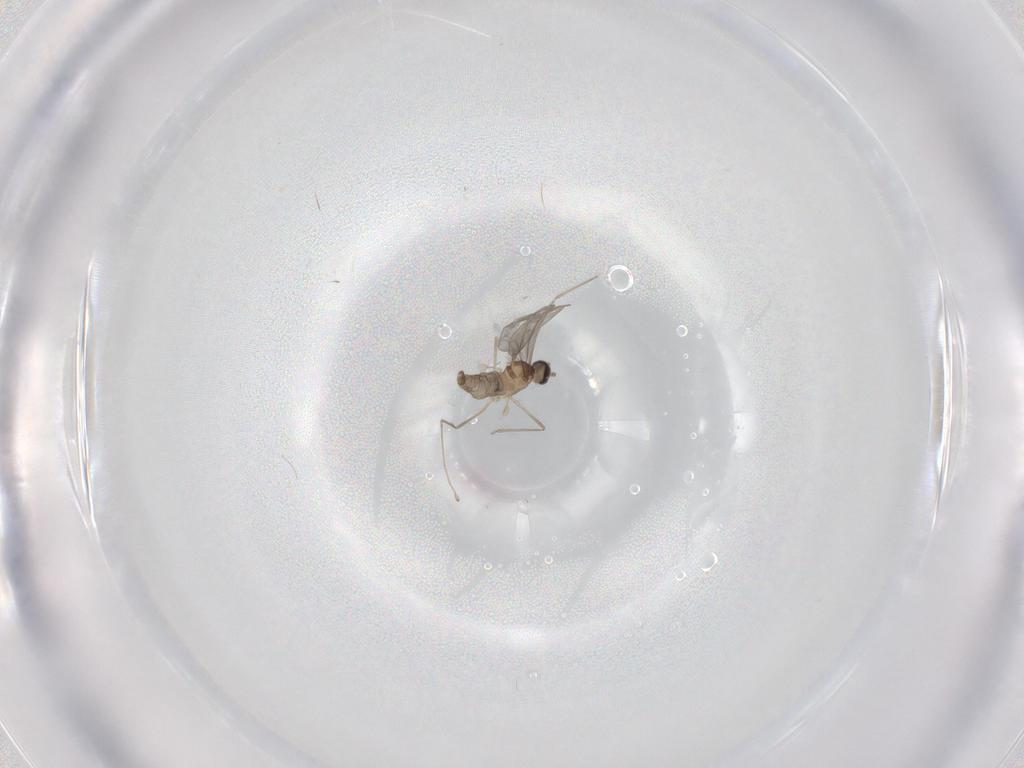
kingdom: Animalia
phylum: Arthropoda
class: Insecta
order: Diptera
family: Cecidomyiidae
